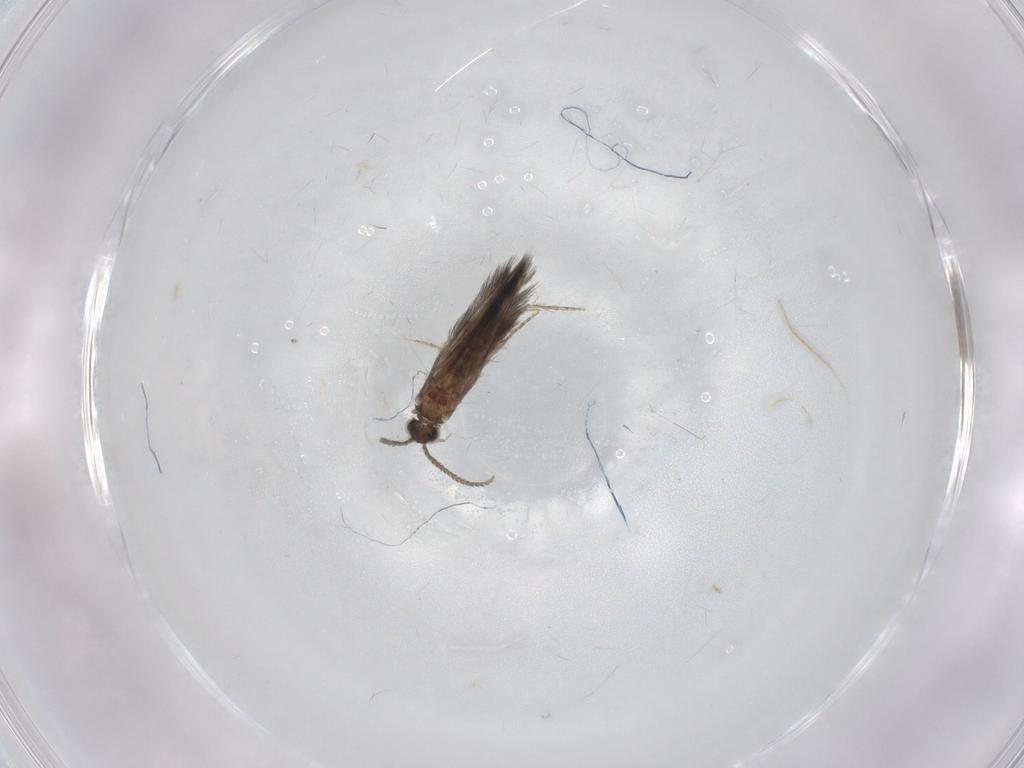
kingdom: Animalia
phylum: Arthropoda
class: Insecta
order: Trichoptera
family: Hydroptilidae
